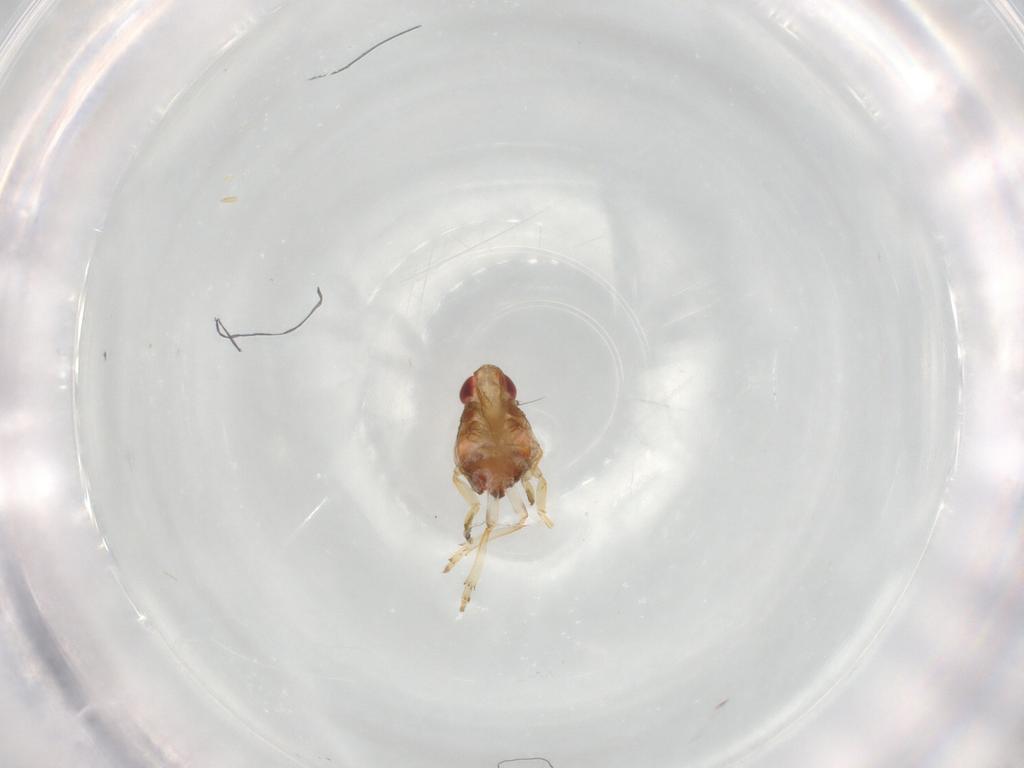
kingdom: Animalia
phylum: Arthropoda
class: Insecta
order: Hemiptera
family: Issidae
